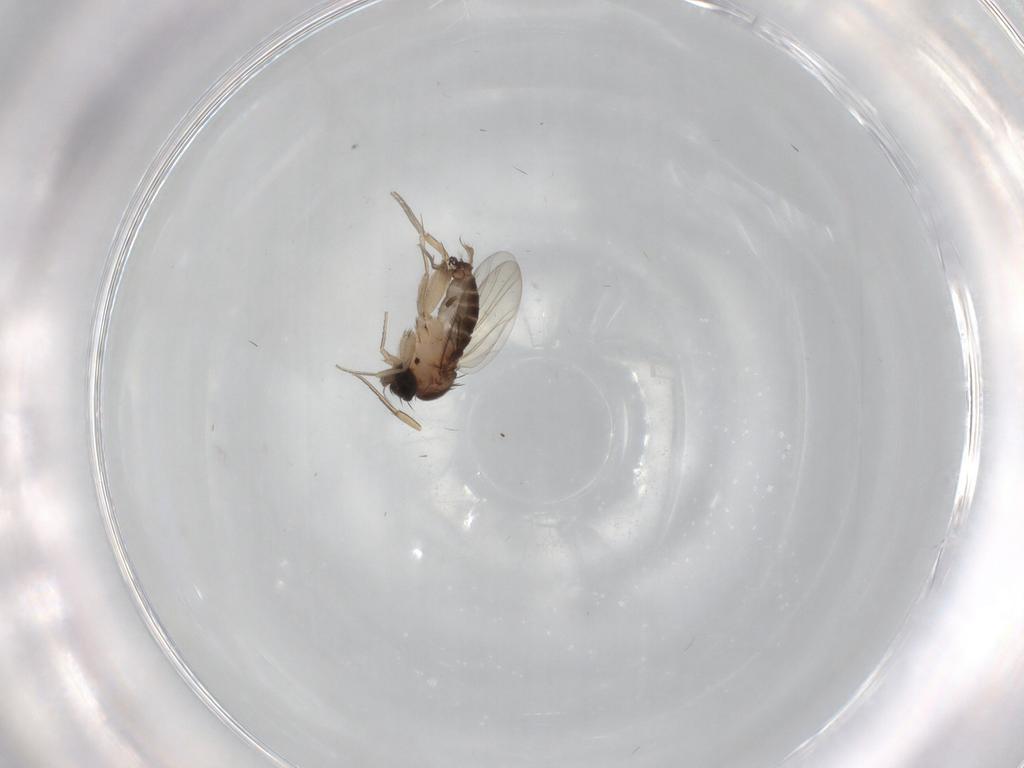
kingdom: Animalia
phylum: Arthropoda
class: Insecta
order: Diptera
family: Phoridae
